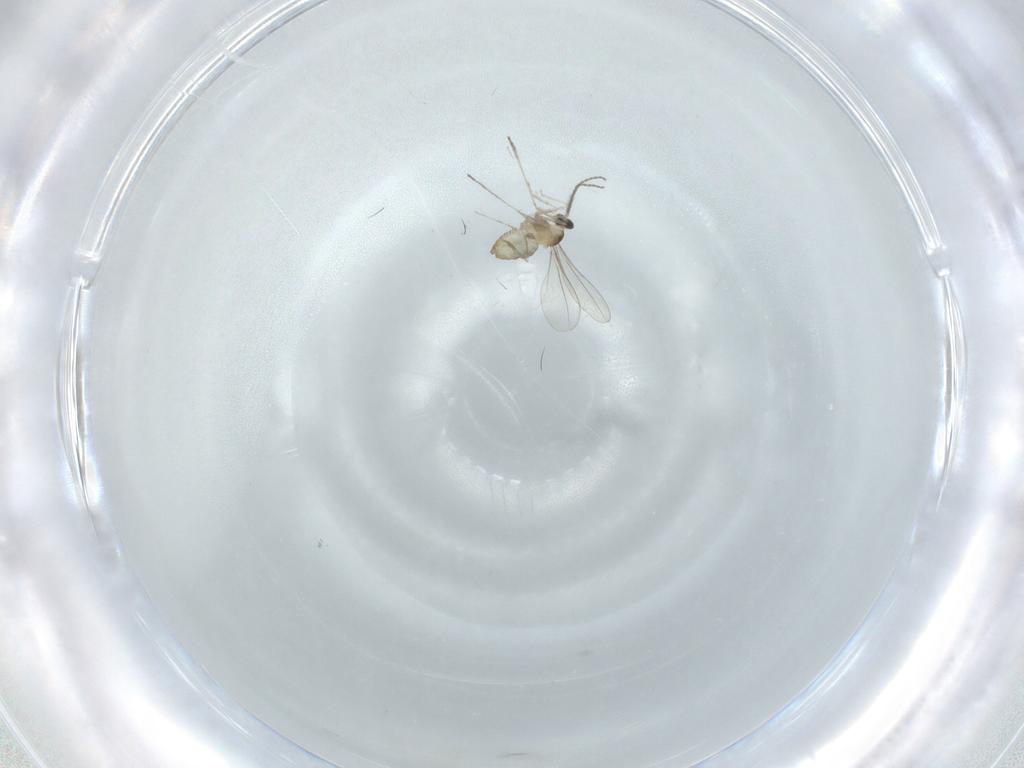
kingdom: Animalia
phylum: Arthropoda
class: Insecta
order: Diptera
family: Cecidomyiidae
